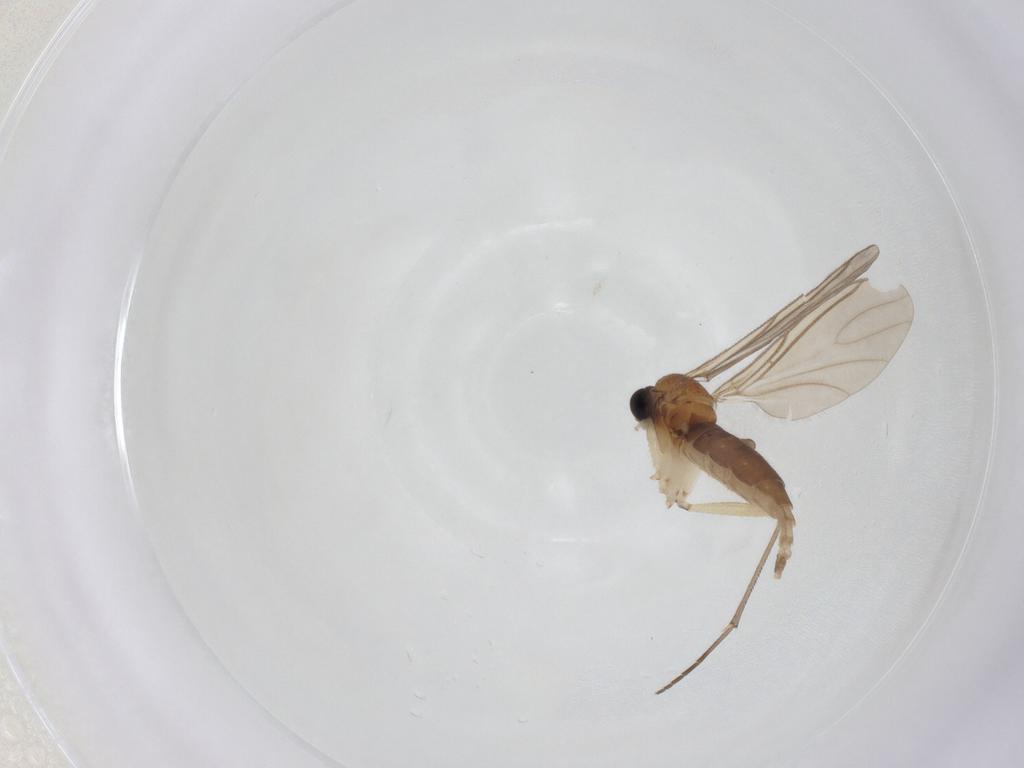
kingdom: Animalia
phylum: Arthropoda
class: Insecta
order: Diptera
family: Sciaridae
